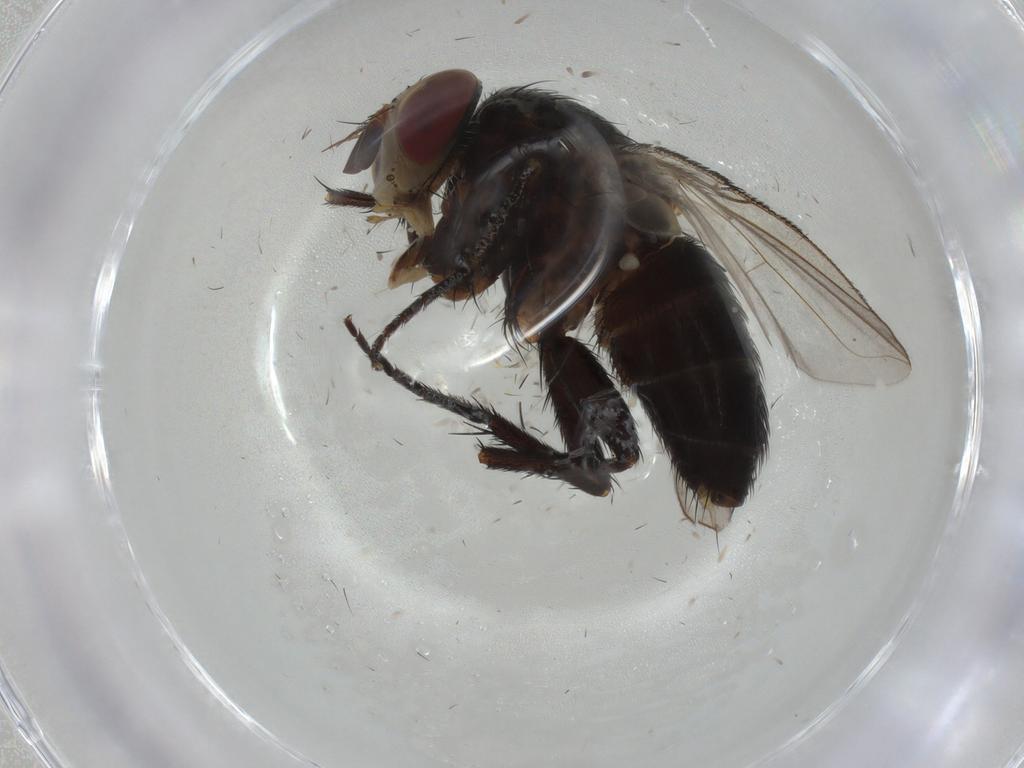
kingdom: Animalia
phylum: Arthropoda
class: Insecta
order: Diptera
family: Tachinidae
